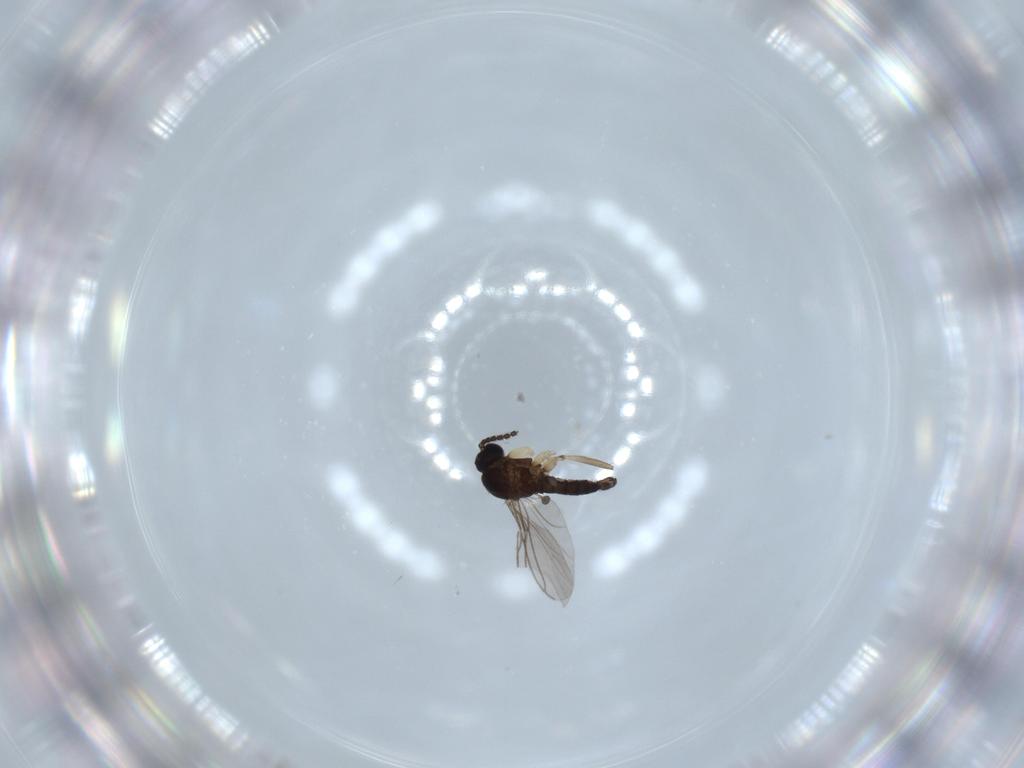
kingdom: Animalia
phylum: Arthropoda
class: Insecta
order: Diptera
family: Sciaridae
